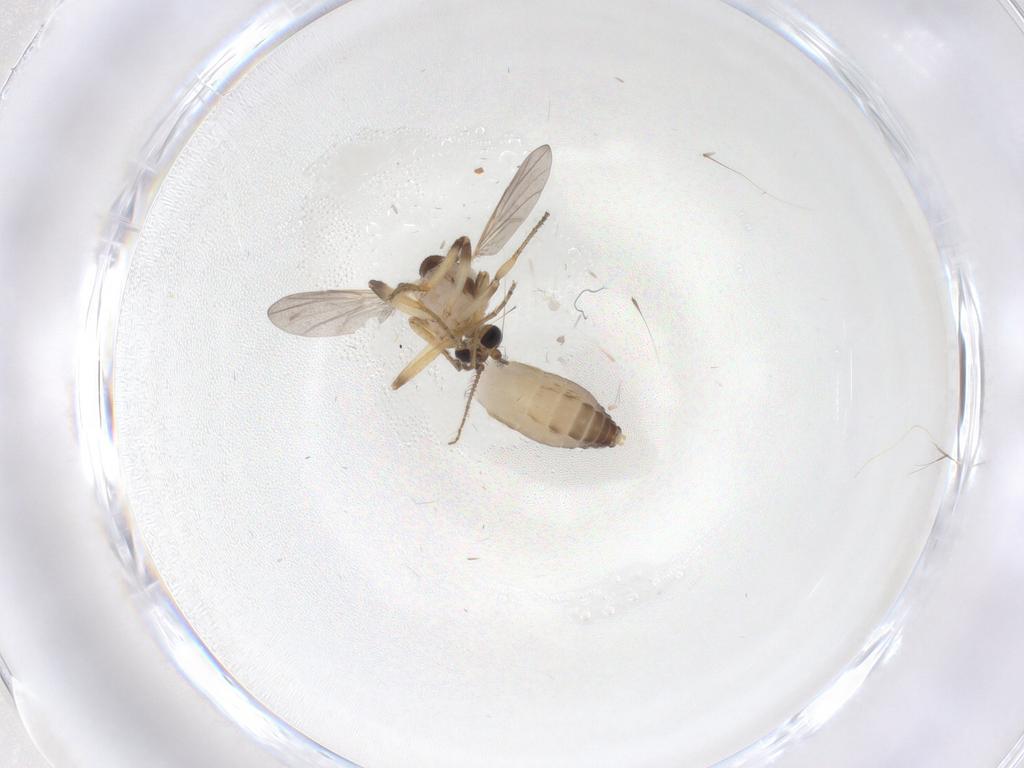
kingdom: Animalia
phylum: Arthropoda
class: Insecta
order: Diptera
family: Ceratopogonidae
